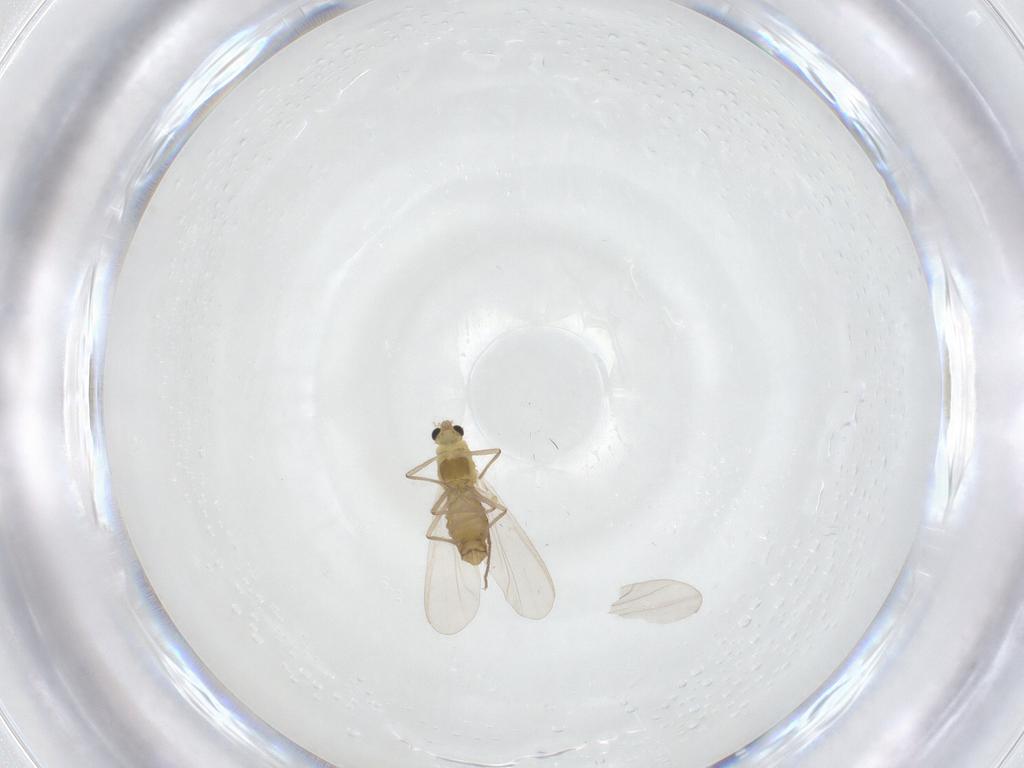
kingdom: Animalia
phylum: Arthropoda
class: Insecta
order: Diptera
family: Chironomidae
